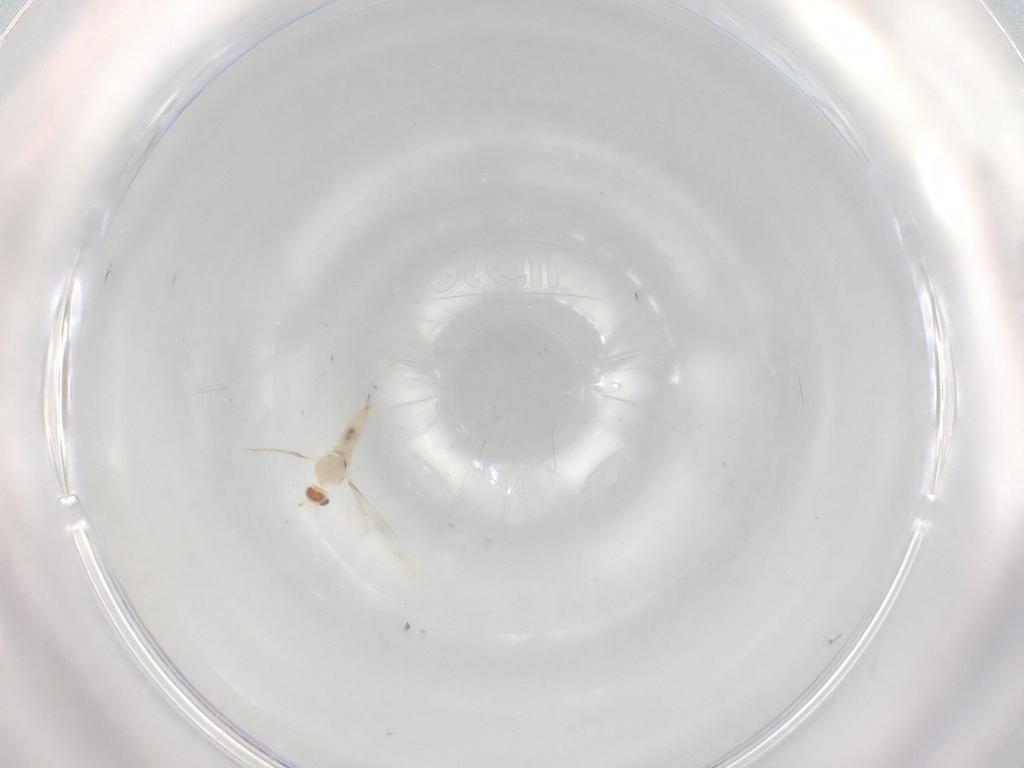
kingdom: Animalia
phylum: Arthropoda
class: Insecta
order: Diptera
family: Cecidomyiidae
